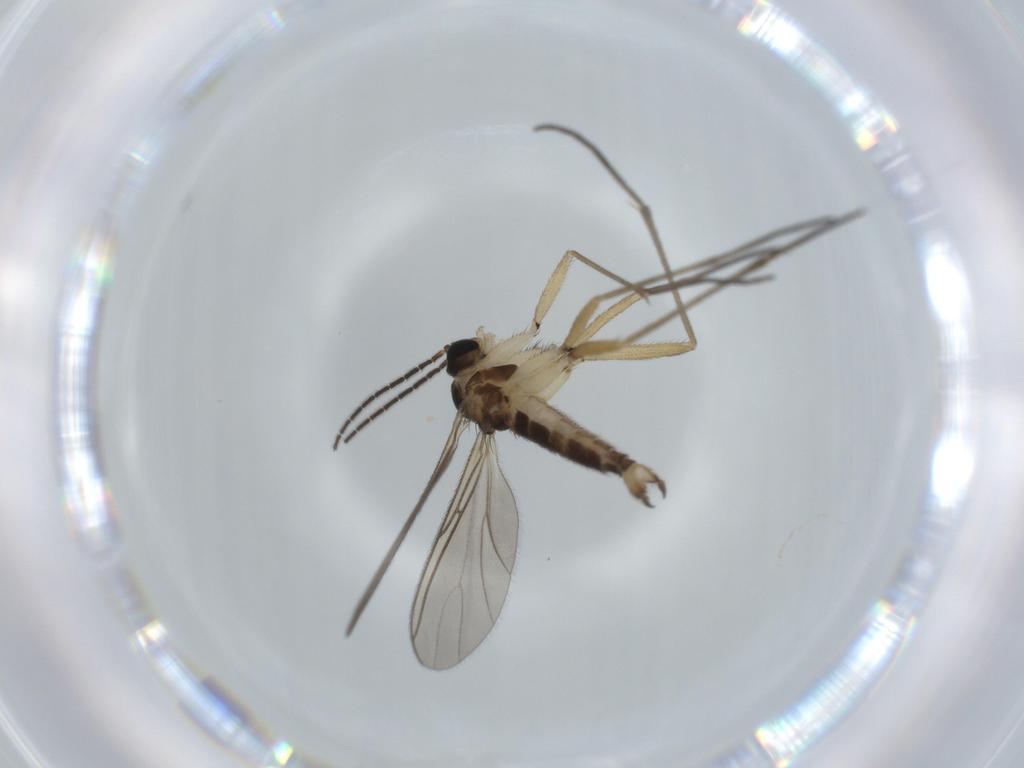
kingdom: Animalia
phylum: Arthropoda
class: Insecta
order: Diptera
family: Sciaridae
